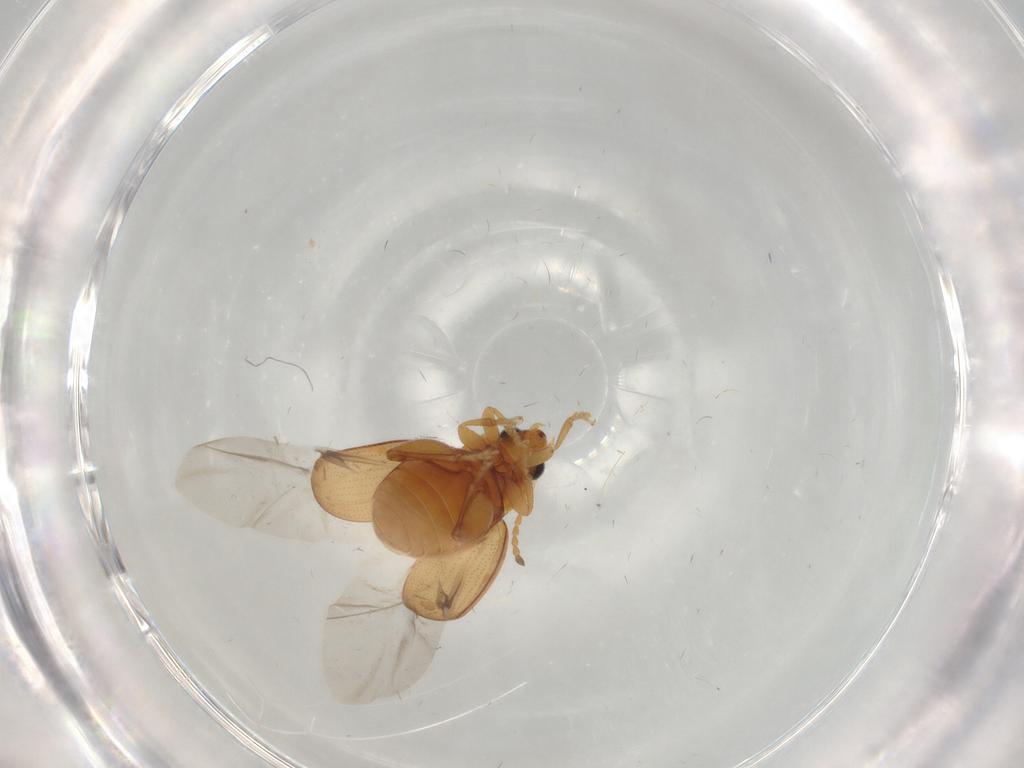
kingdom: Animalia
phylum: Arthropoda
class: Insecta
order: Coleoptera
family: Chrysomelidae
